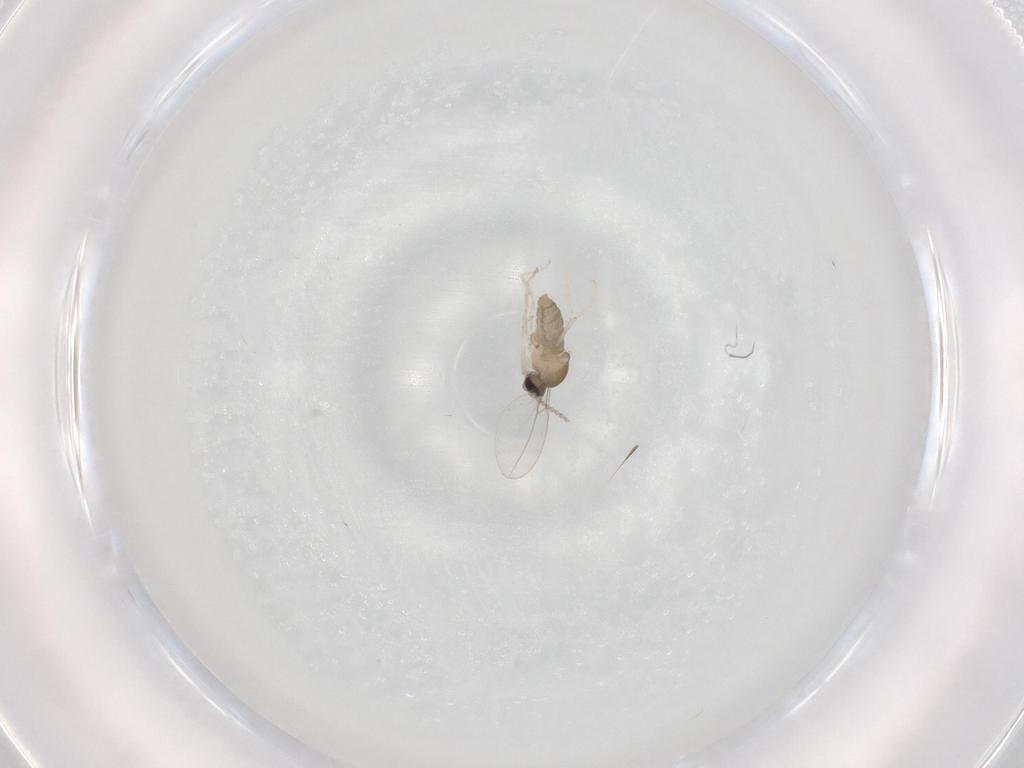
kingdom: Animalia
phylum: Arthropoda
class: Insecta
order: Diptera
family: Cecidomyiidae
